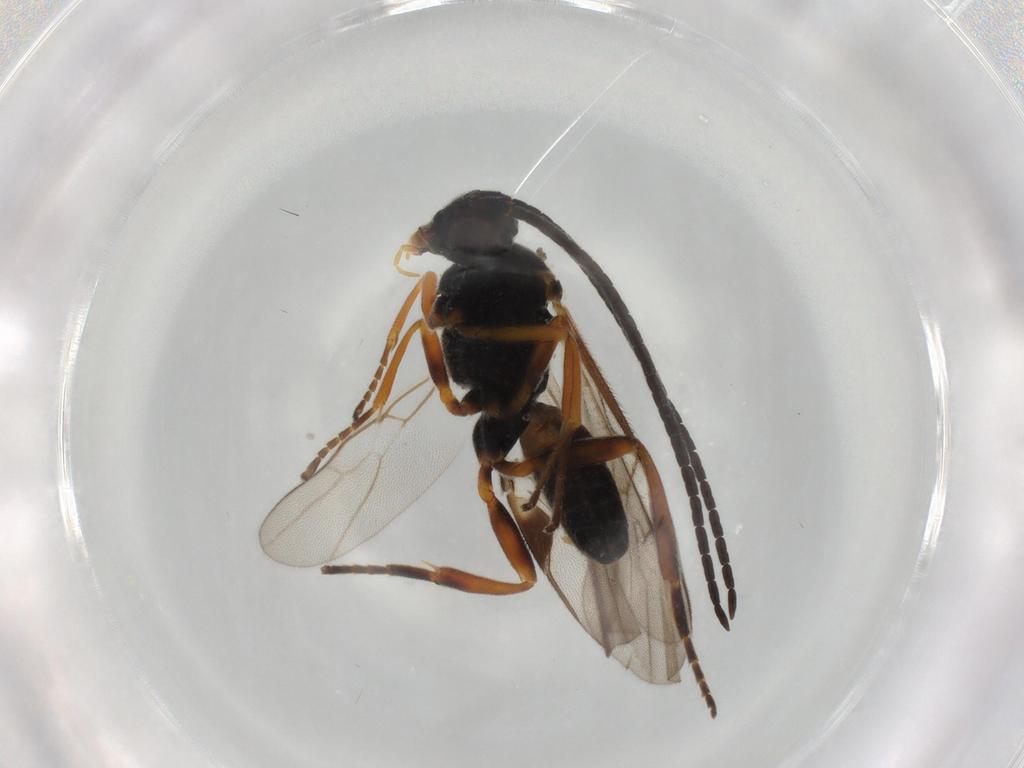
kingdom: Animalia
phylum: Arthropoda
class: Insecta
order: Hymenoptera
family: Braconidae
